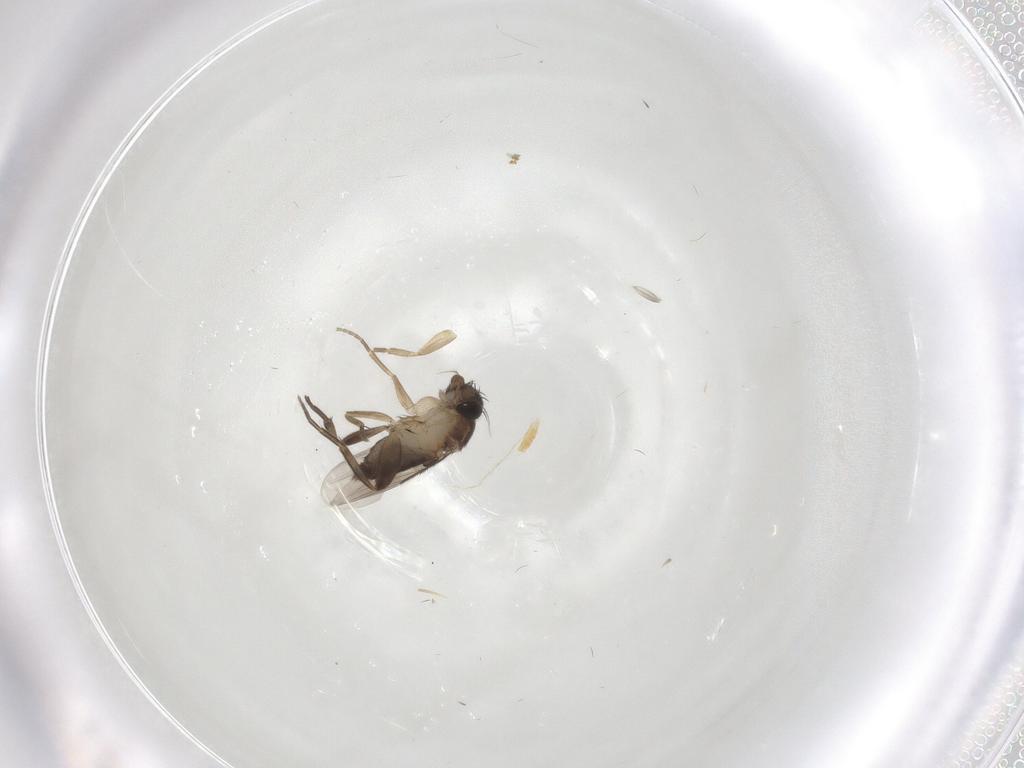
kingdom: Animalia
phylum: Arthropoda
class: Insecta
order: Diptera
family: Phoridae
